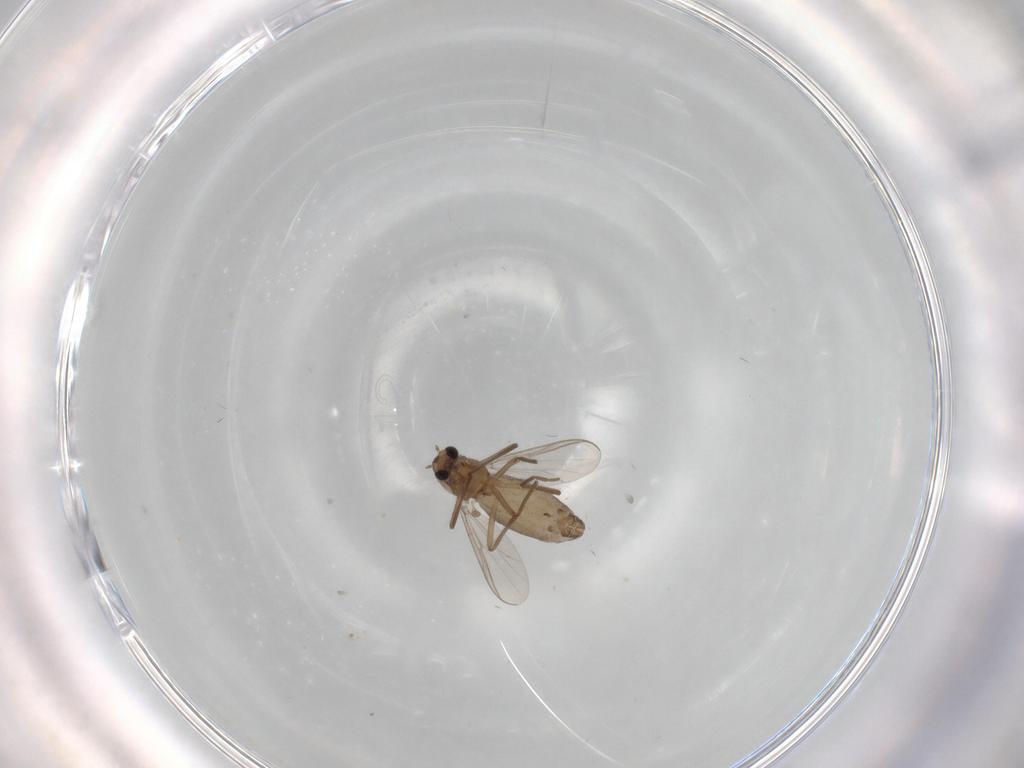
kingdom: Animalia
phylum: Arthropoda
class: Insecta
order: Diptera
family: Chironomidae
